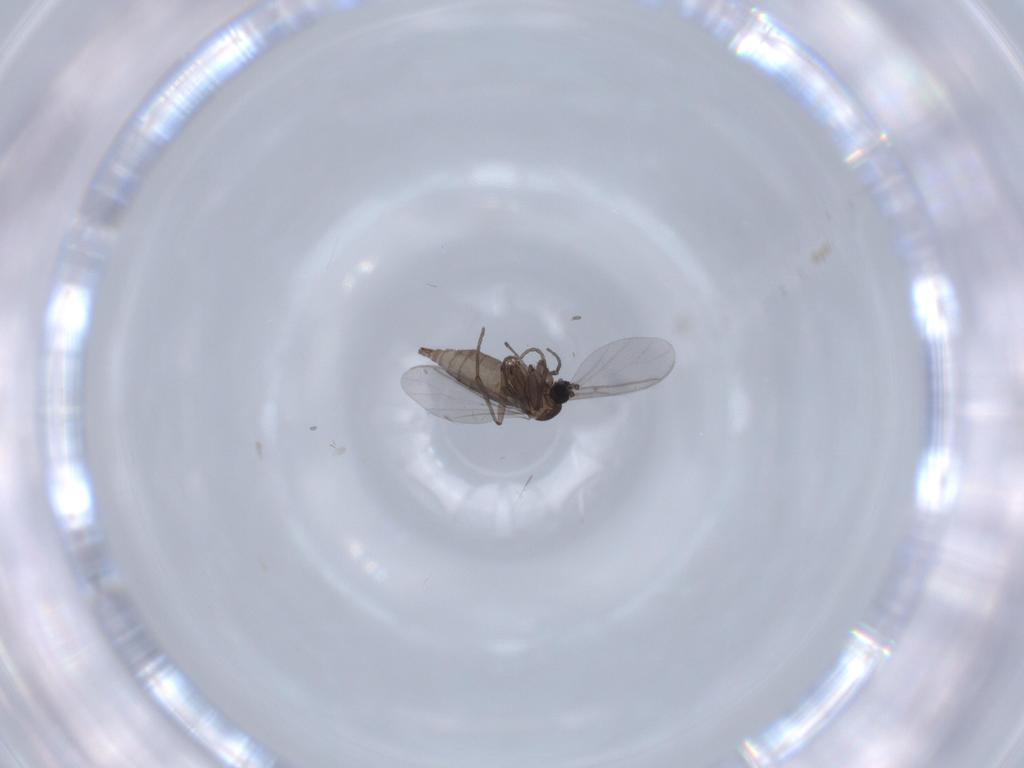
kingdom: Animalia
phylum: Arthropoda
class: Insecta
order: Diptera
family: Sciaridae
